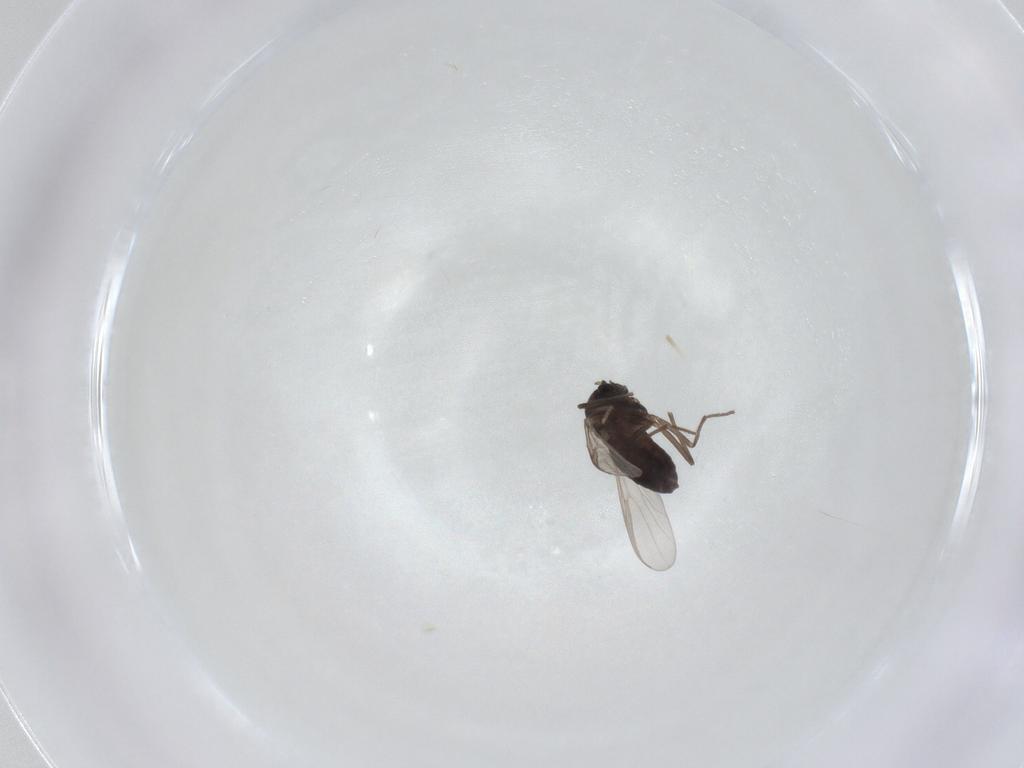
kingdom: Animalia
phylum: Arthropoda
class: Insecta
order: Diptera
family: Chironomidae
